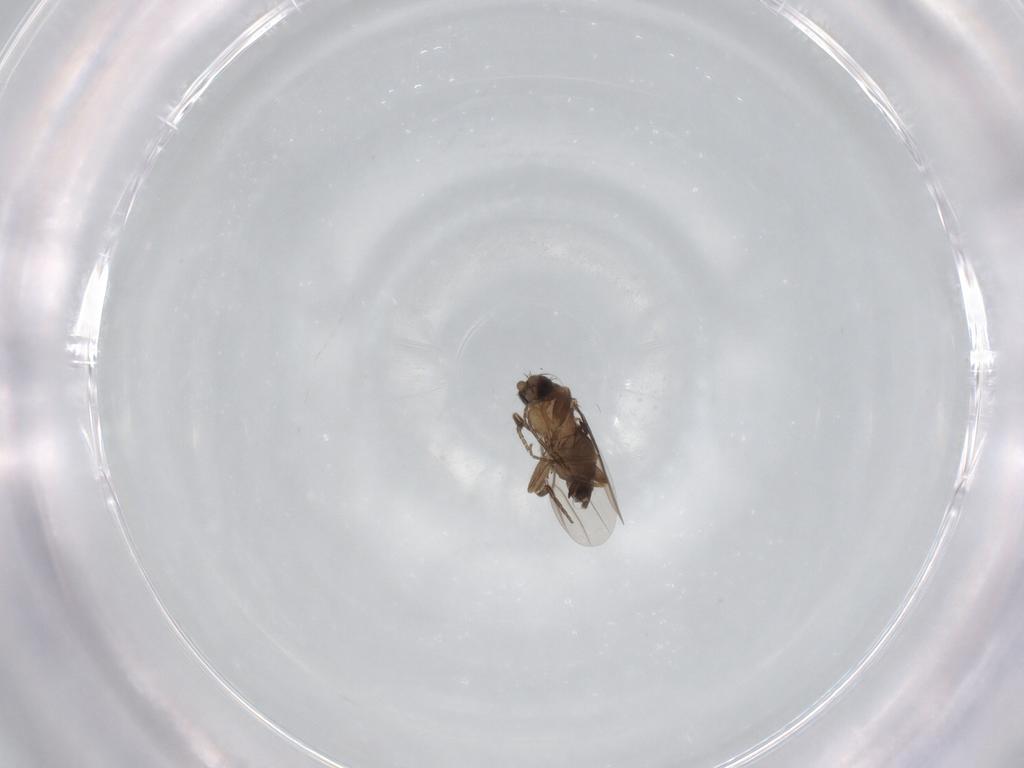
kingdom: Animalia
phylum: Arthropoda
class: Insecta
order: Diptera
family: Phoridae
